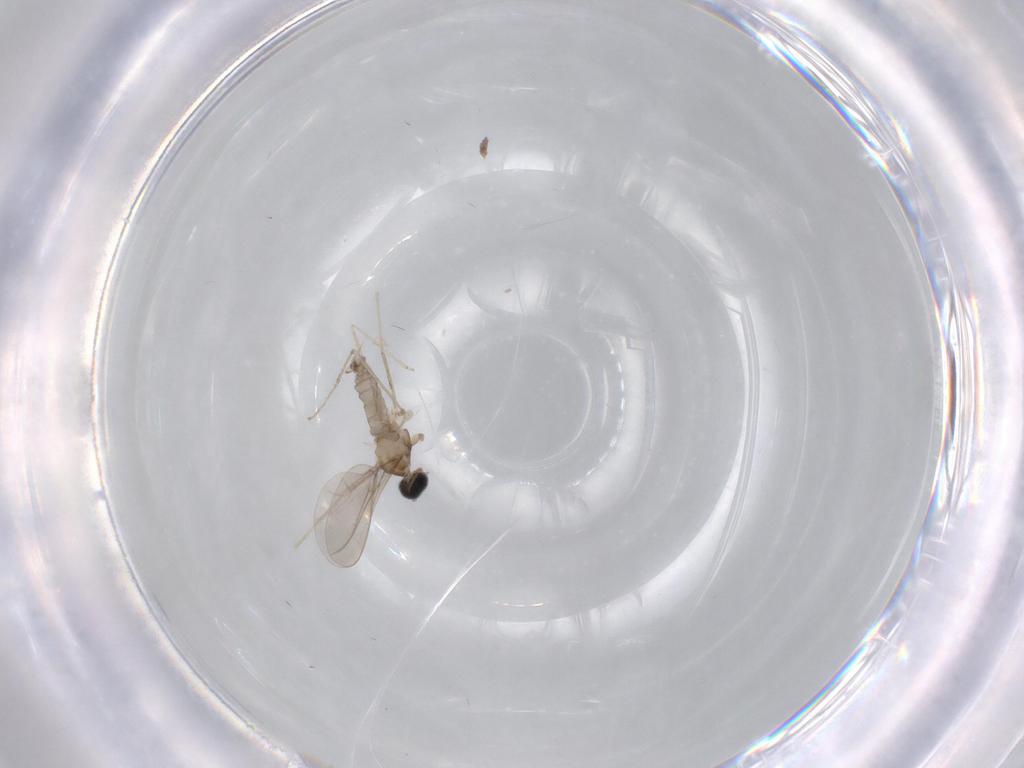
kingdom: Animalia
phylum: Arthropoda
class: Insecta
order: Diptera
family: Cecidomyiidae
